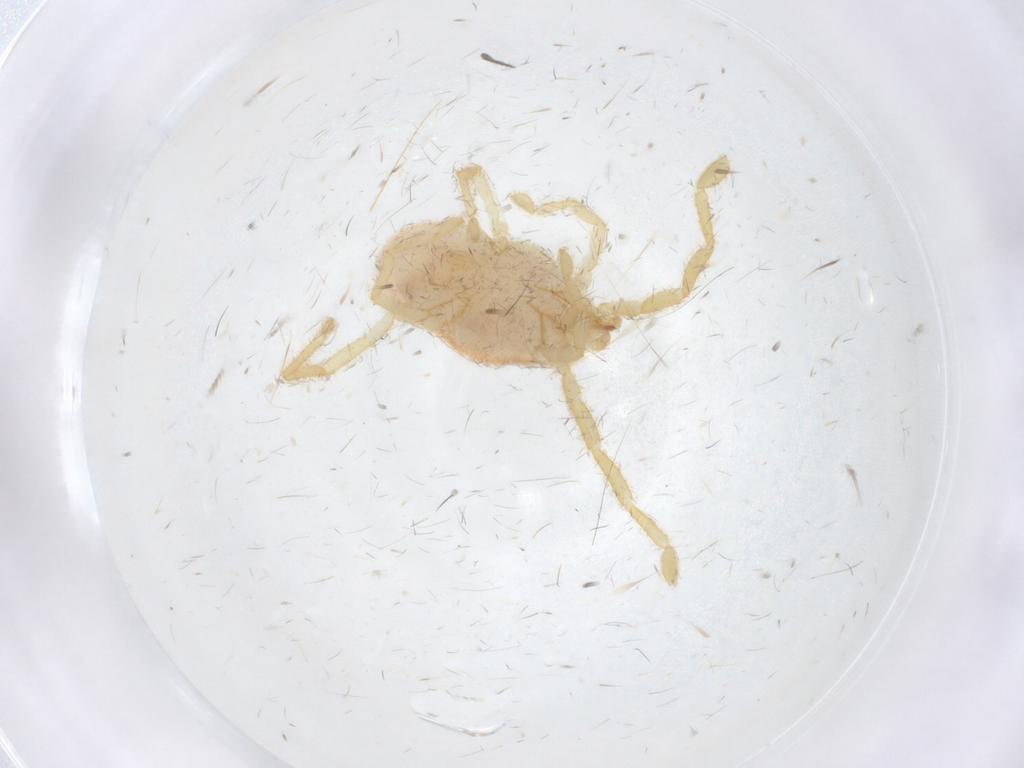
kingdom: Animalia
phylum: Arthropoda
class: Arachnida
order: Trombidiformes
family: Erythraeidae
